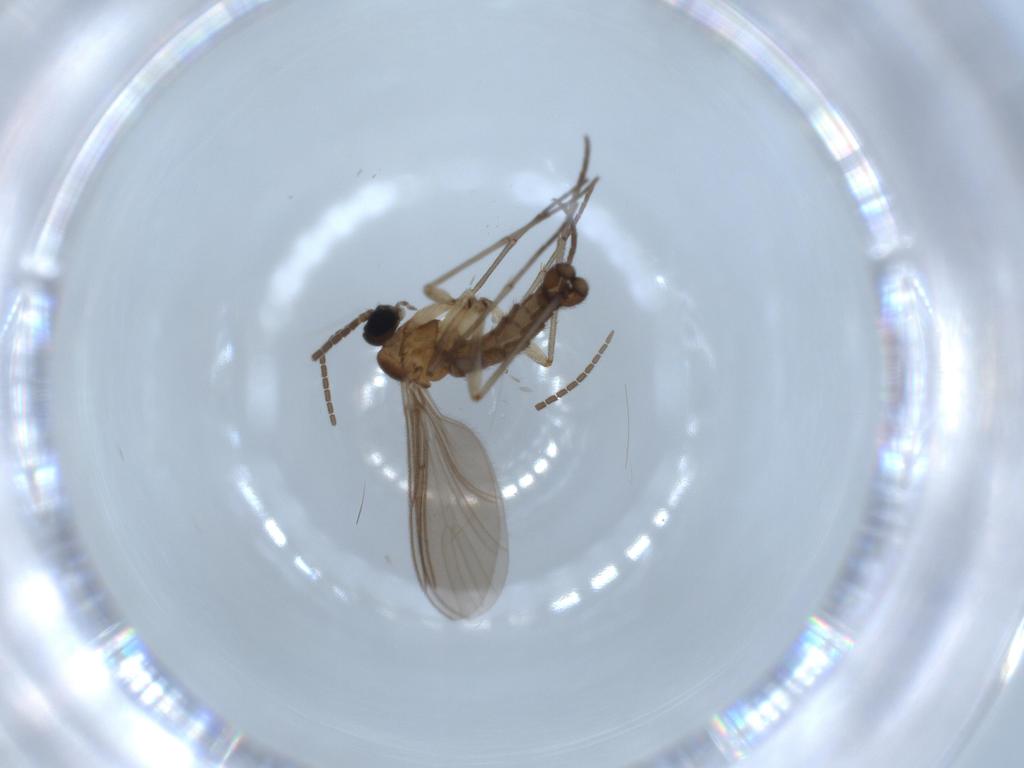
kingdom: Animalia
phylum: Arthropoda
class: Insecta
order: Diptera
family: Sciaridae
